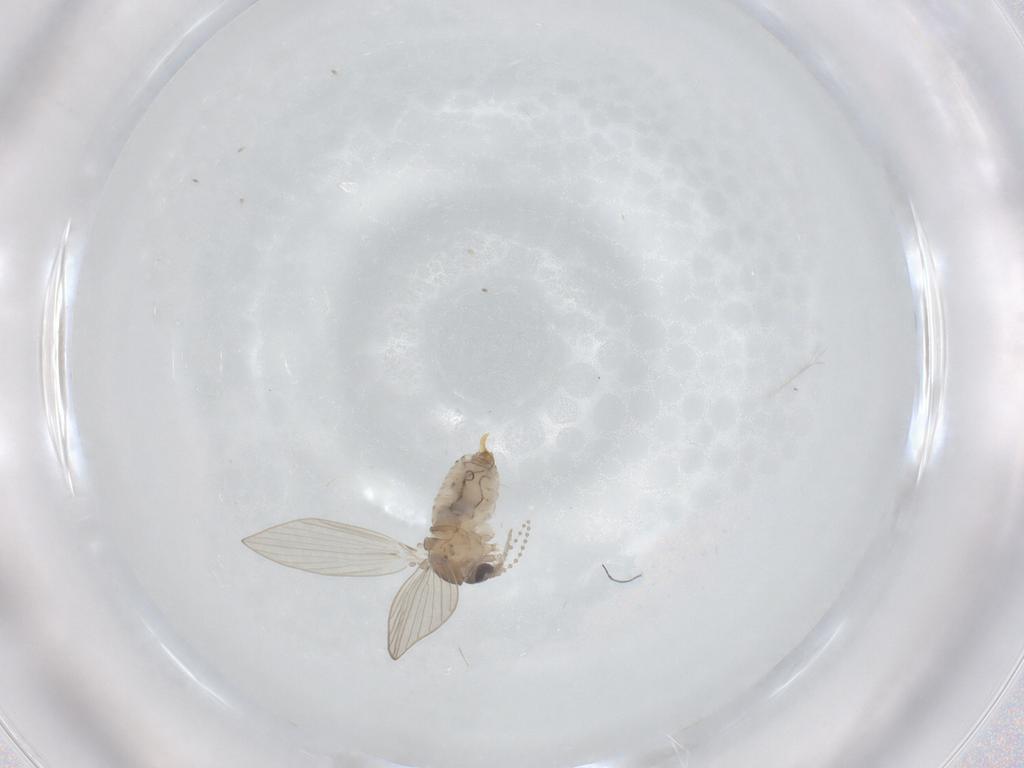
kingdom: Animalia
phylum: Arthropoda
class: Insecta
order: Diptera
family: Psychodidae
